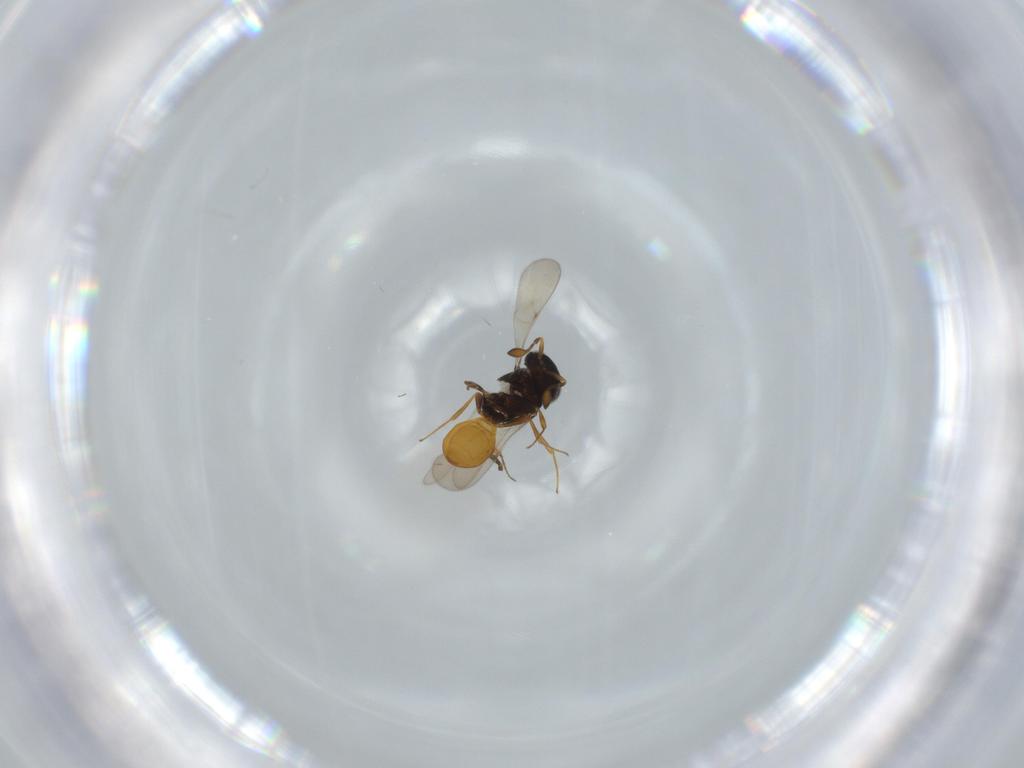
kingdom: Animalia
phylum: Arthropoda
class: Insecta
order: Hymenoptera
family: Scelionidae
